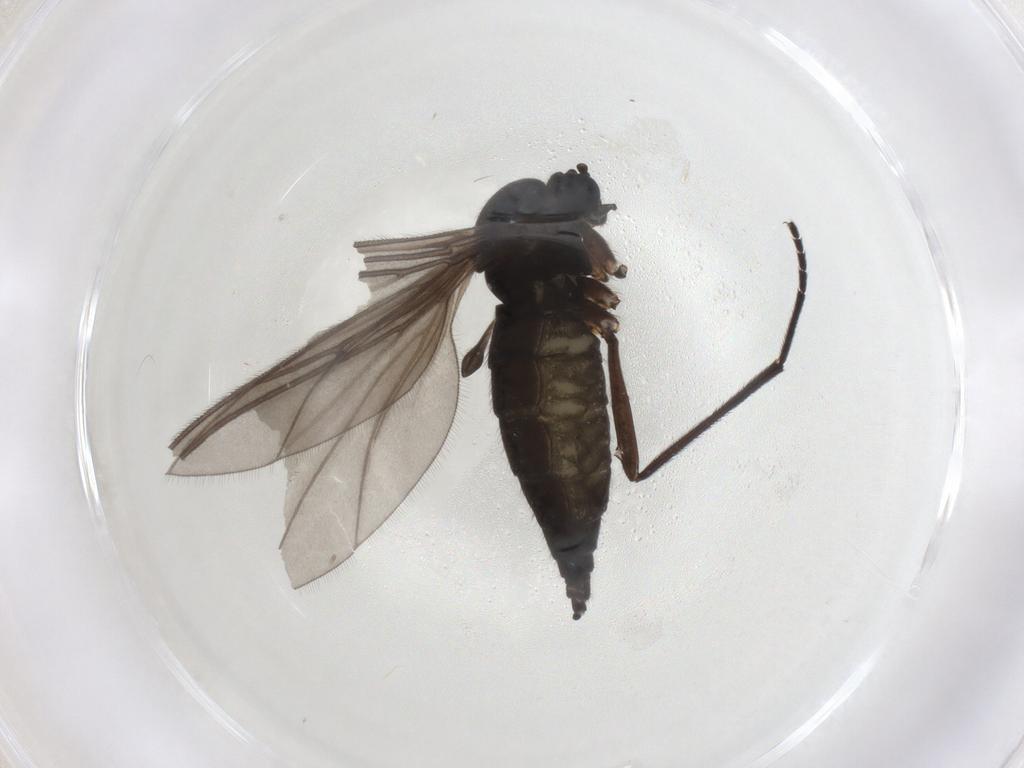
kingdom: Animalia
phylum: Arthropoda
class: Insecta
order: Diptera
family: Sciaridae
